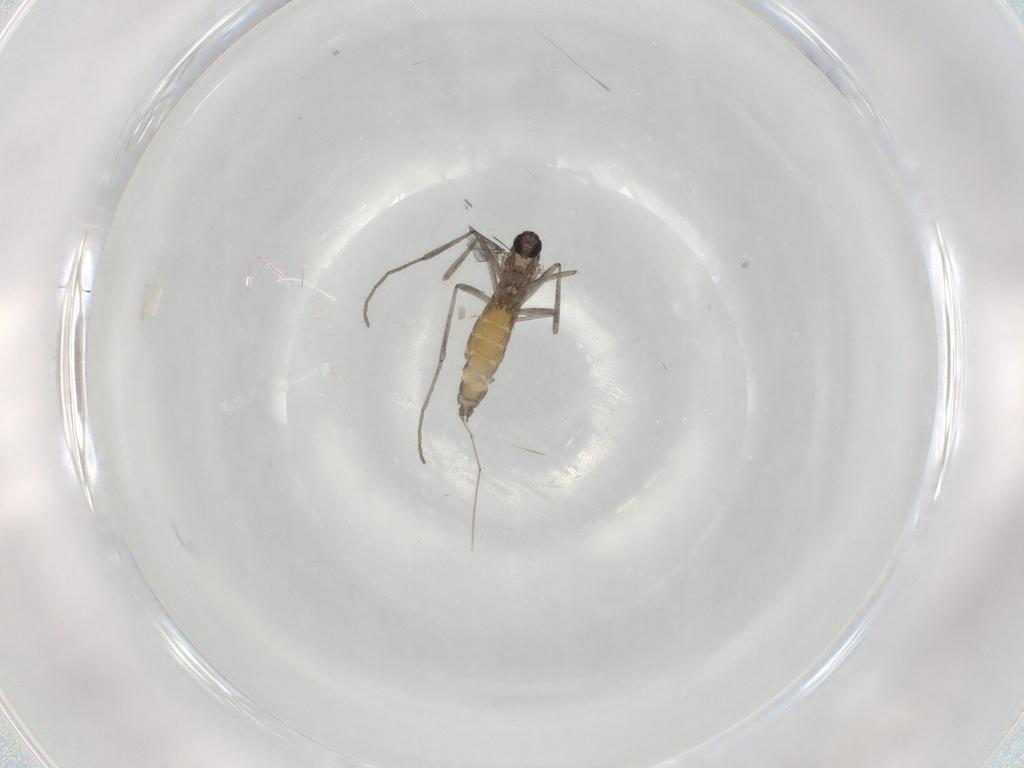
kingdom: Animalia
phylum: Arthropoda
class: Insecta
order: Diptera
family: Cecidomyiidae
